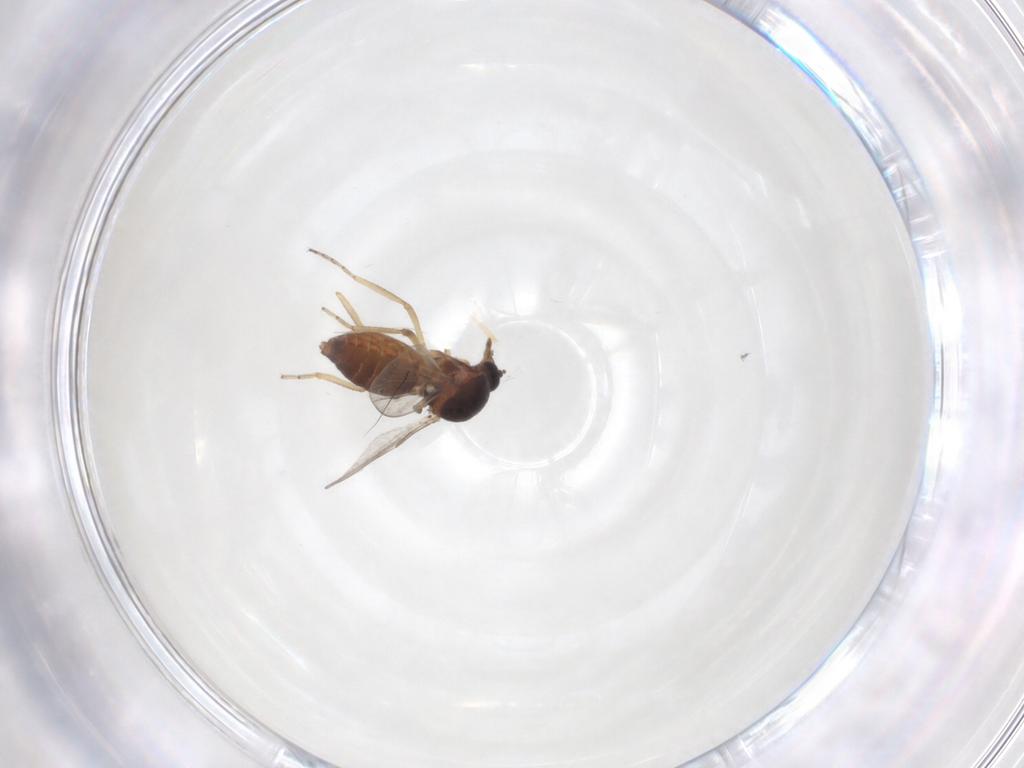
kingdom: Animalia
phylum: Arthropoda
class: Insecta
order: Diptera
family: Ceratopogonidae
